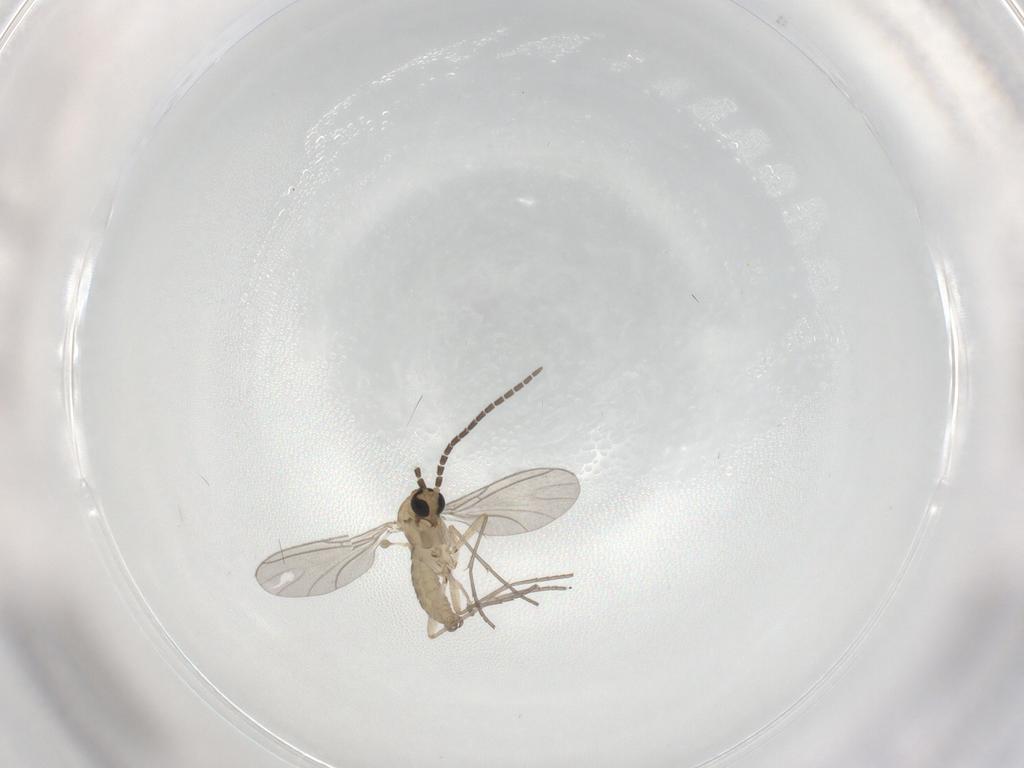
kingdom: Animalia
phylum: Arthropoda
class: Insecta
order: Diptera
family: Sciaridae
